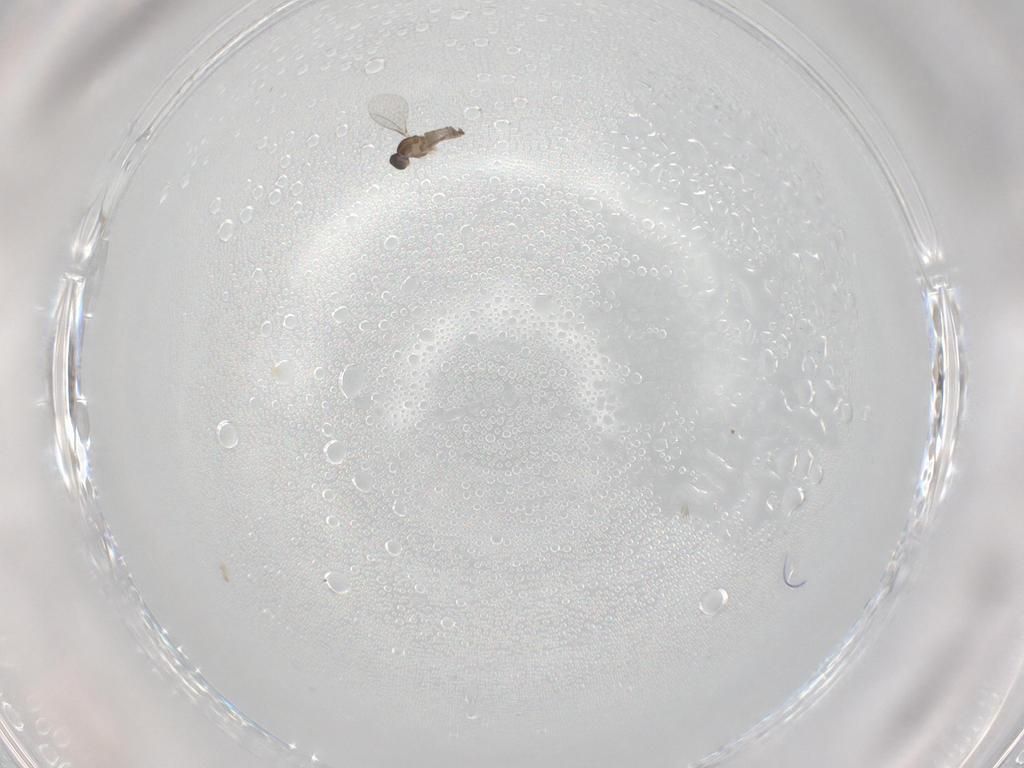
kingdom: Animalia
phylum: Arthropoda
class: Insecta
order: Diptera
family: Cecidomyiidae
